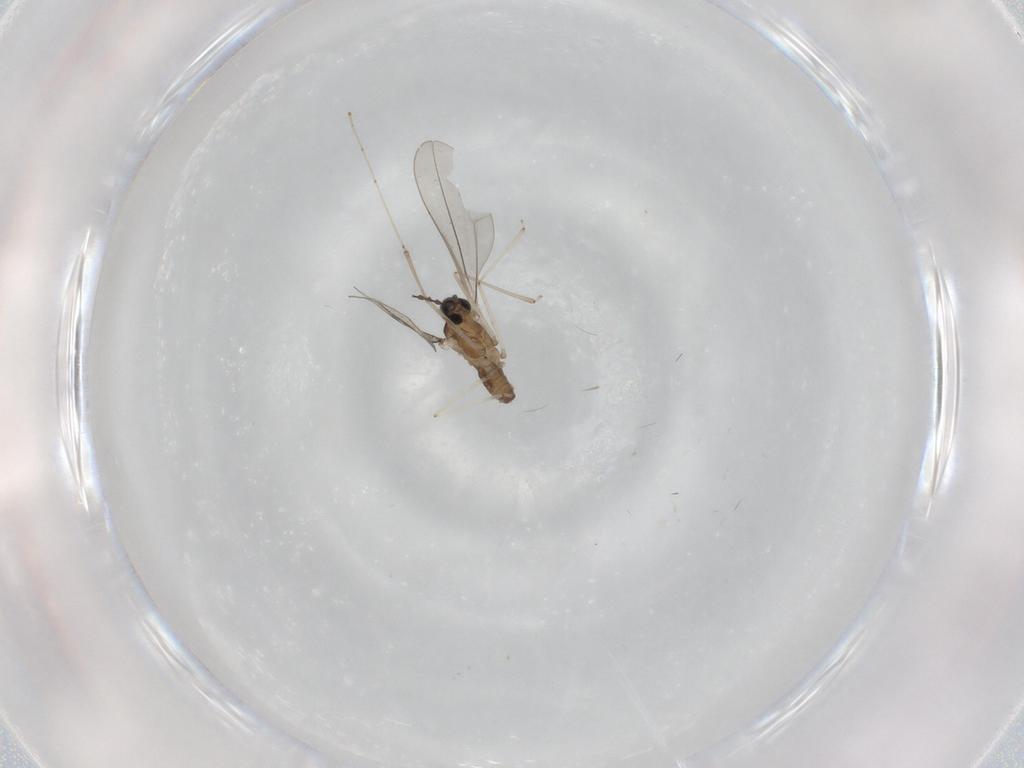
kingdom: Animalia
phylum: Arthropoda
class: Insecta
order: Diptera
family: Cecidomyiidae
